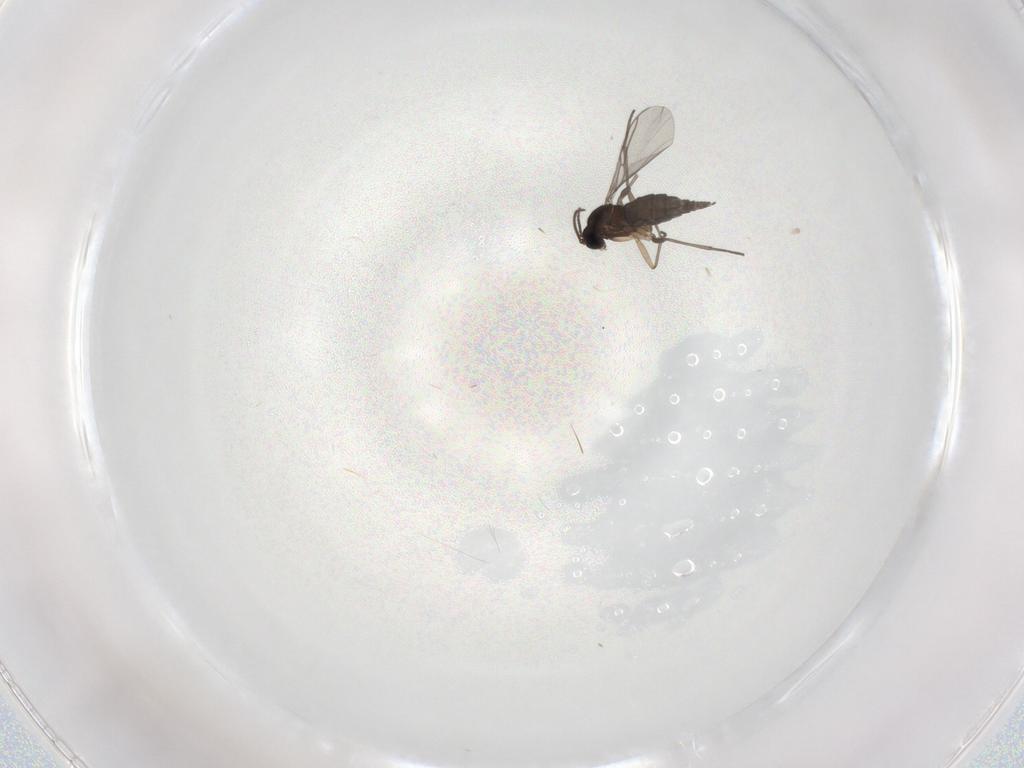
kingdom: Animalia
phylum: Arthropoda
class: Insecta
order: Diptera
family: Sciaridae
